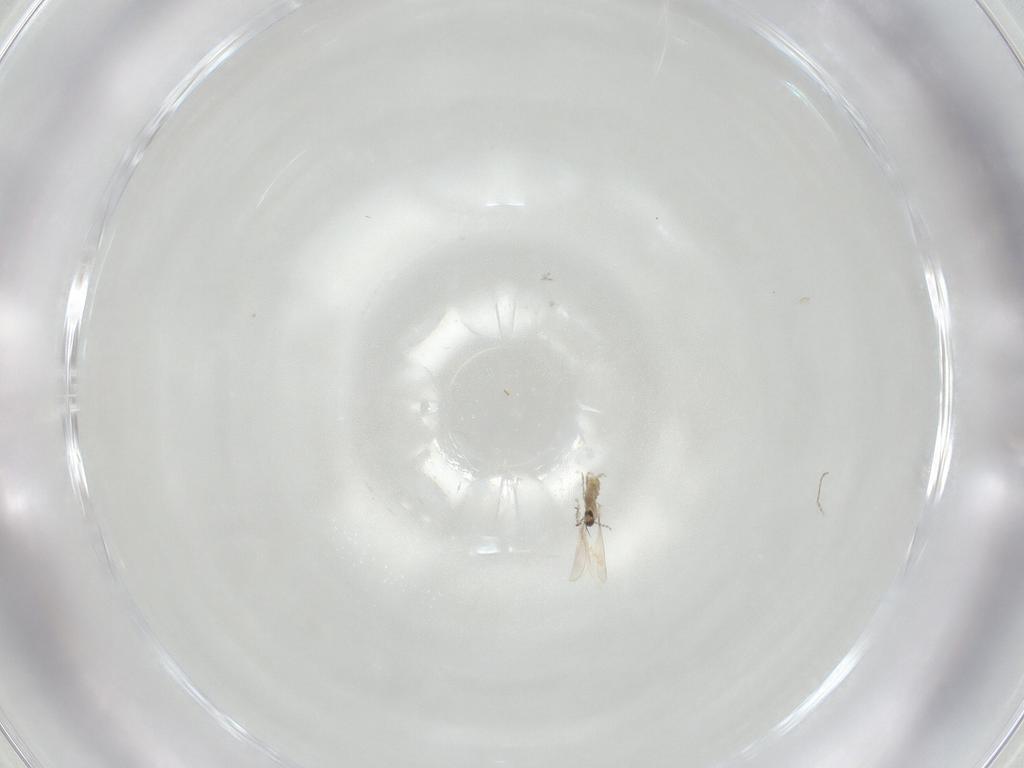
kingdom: Animalia
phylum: Arthropoda
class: Insecta
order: Diptera
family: Cecidomyiidae
